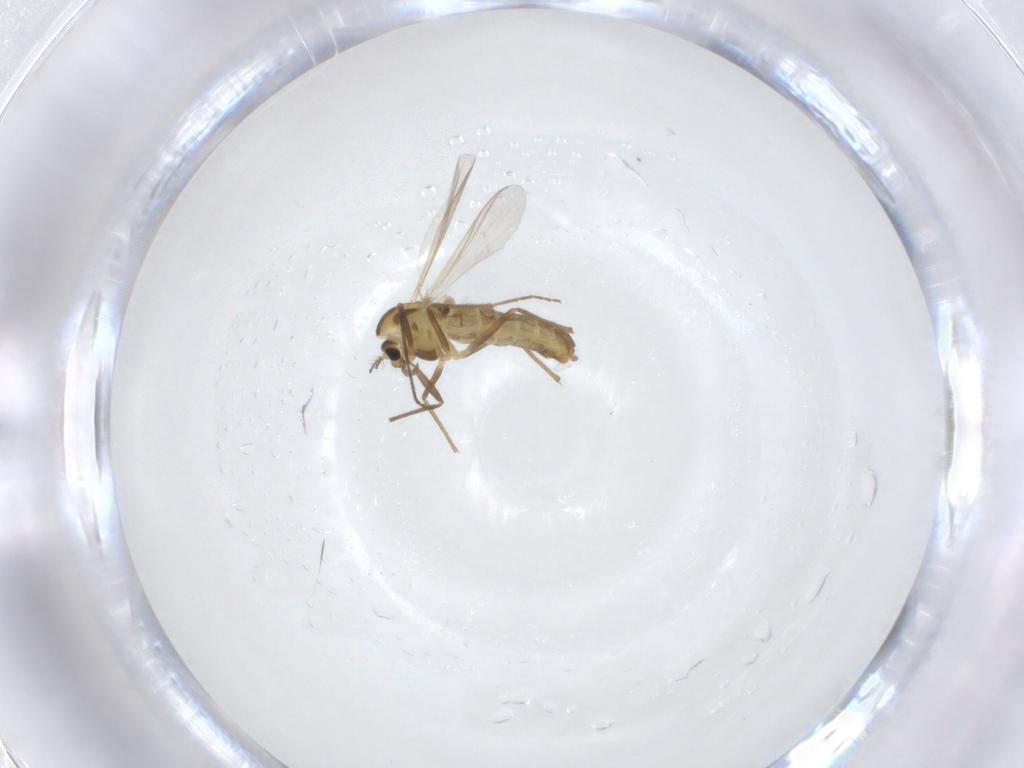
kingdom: Animalia
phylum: Arthropoda
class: Insecta
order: Diptera
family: Chironomidae
